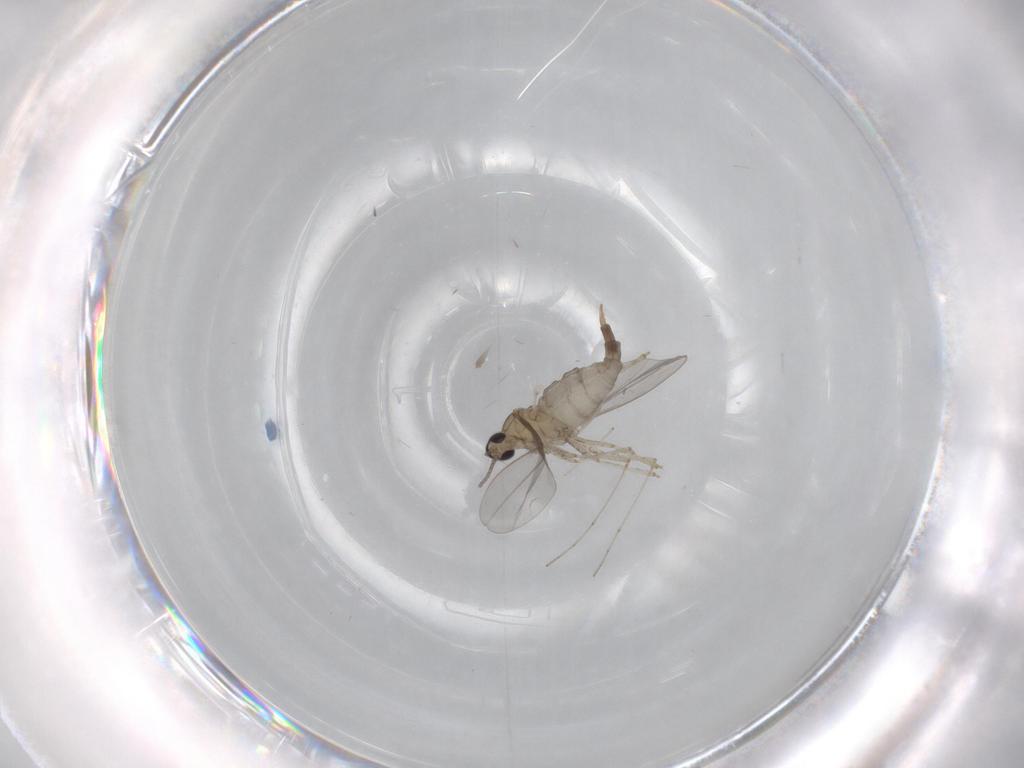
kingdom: Animalia
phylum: Arthropoda
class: Insecta
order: Diptera
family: Cecidomyiidae
